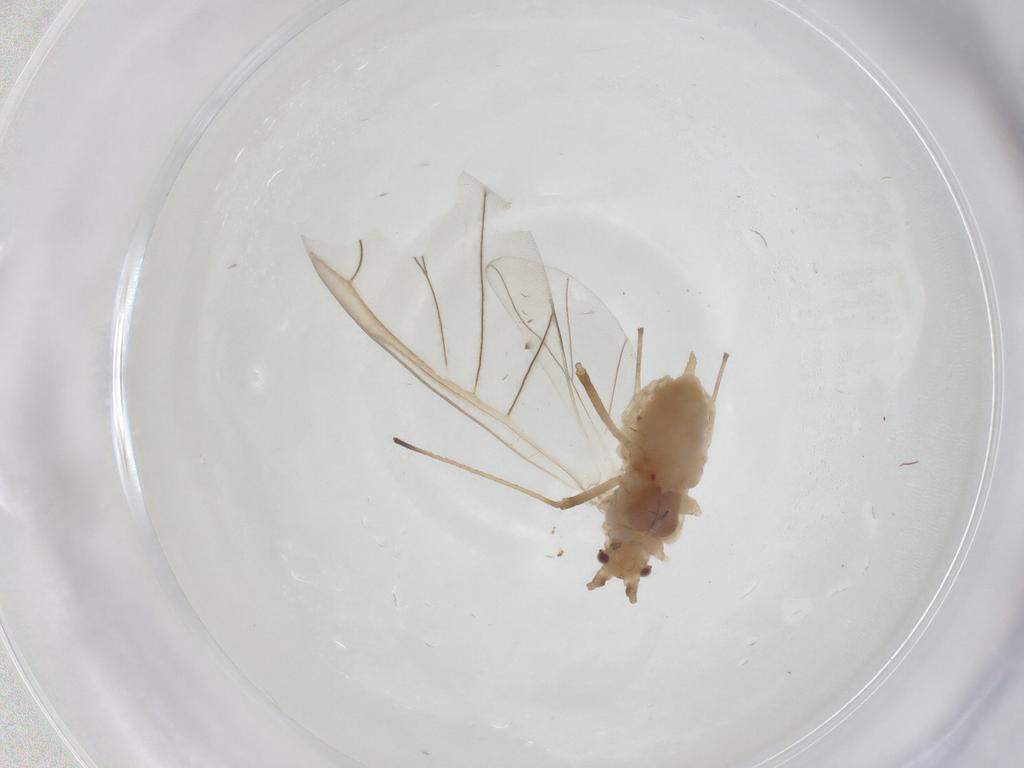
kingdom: Animalia
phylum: Arthropoda
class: Insecta
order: Hemiptera
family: Aphididae
